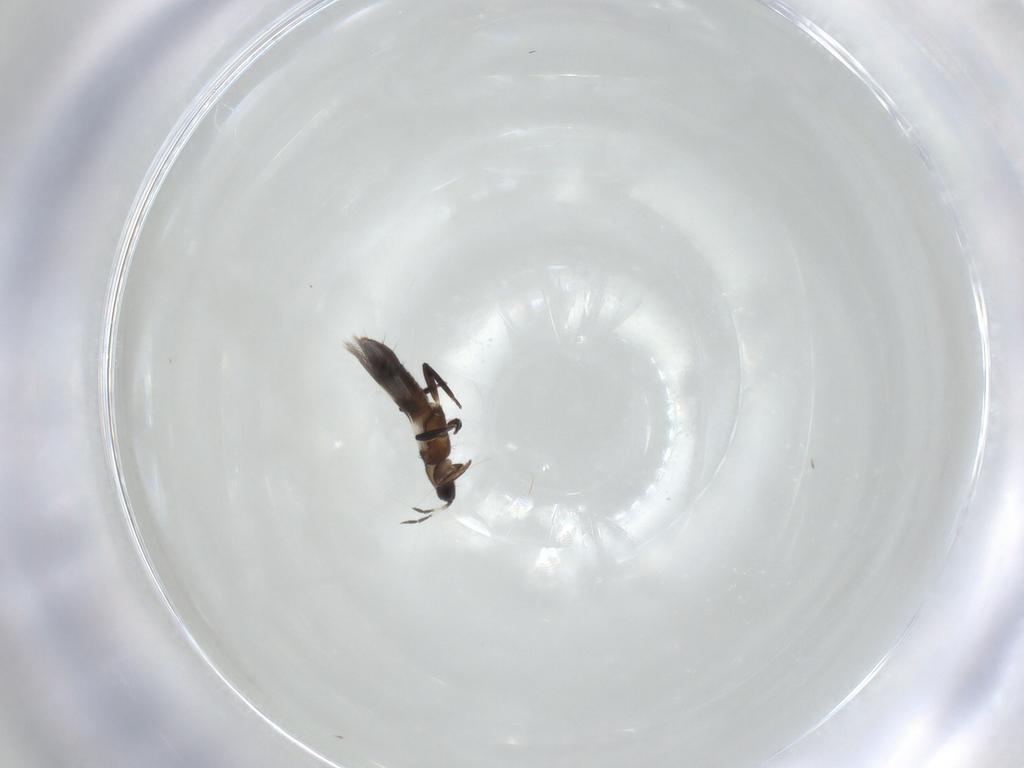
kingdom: Animalia
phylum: Arthropoda
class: Insecta
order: Thysanoptera
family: Aeolothripidae
